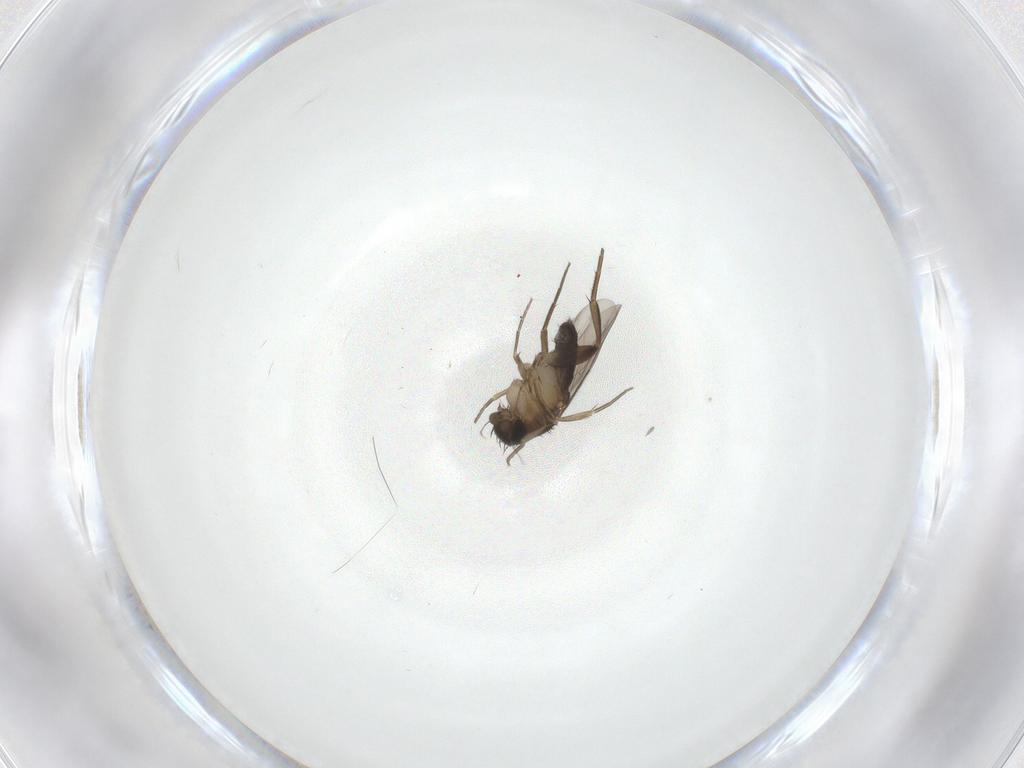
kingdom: Animalia
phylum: Arthropoda
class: Insecta
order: Diptera
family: Phoridae
